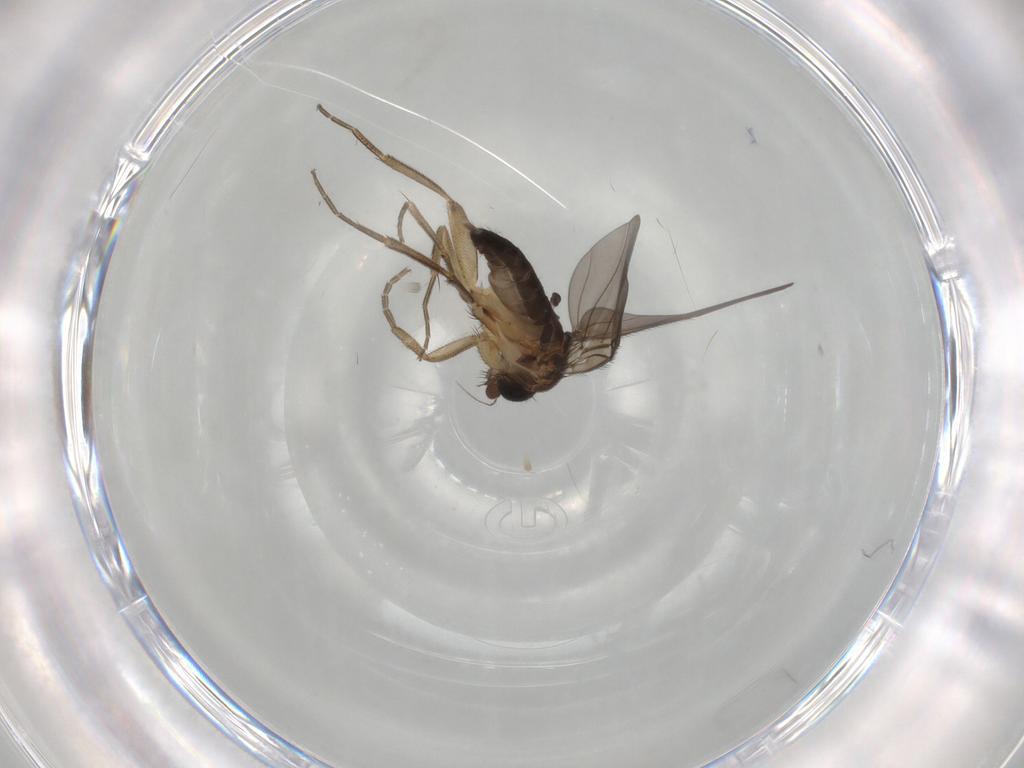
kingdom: Animalia
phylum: Arthropoda
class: Insecta
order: Diptera
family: Phoridae
